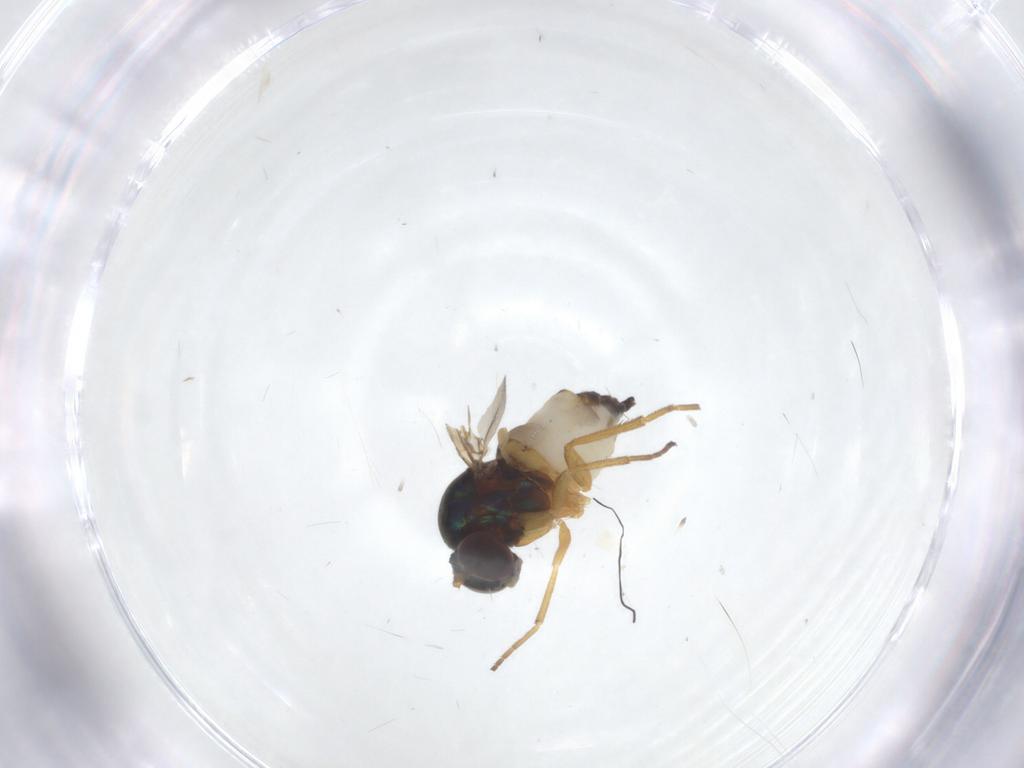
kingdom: Animalia
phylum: Arthropoda
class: Insecta
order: Diptera
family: Dolichopodidae
